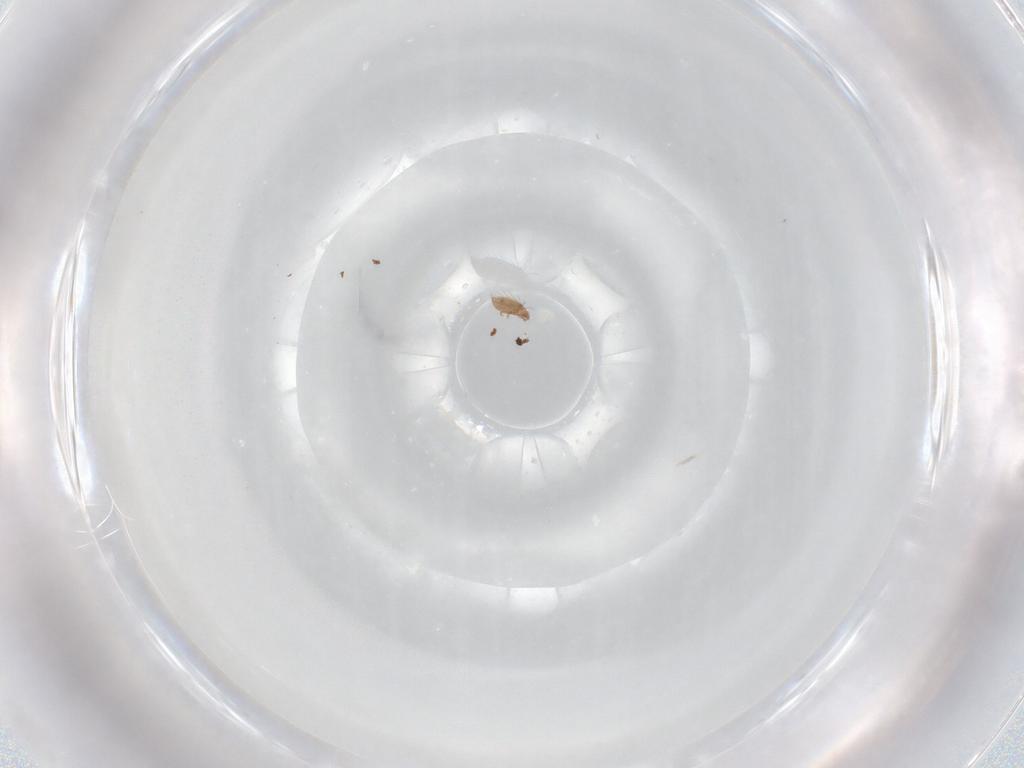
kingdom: Animalia
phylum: Arthropoda
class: Arachnida
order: Sarcoptiformes
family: Ceratozetidae
